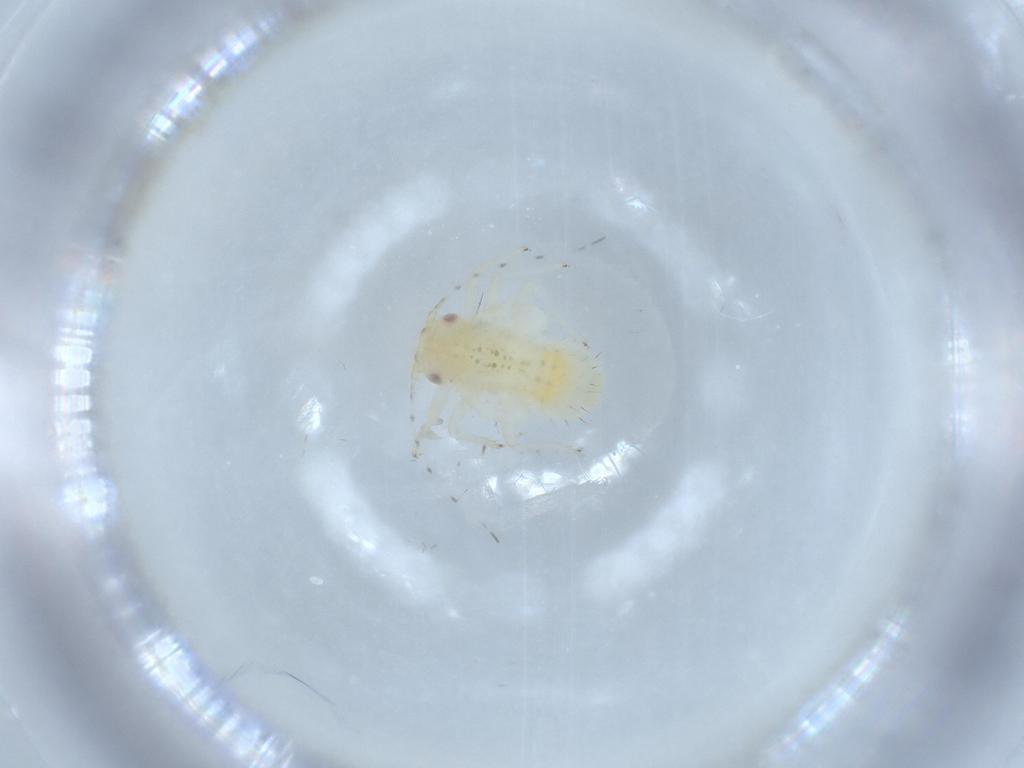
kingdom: Animalia
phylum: Arthropoda
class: Insecta
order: Hemiptera
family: Psyllidae
